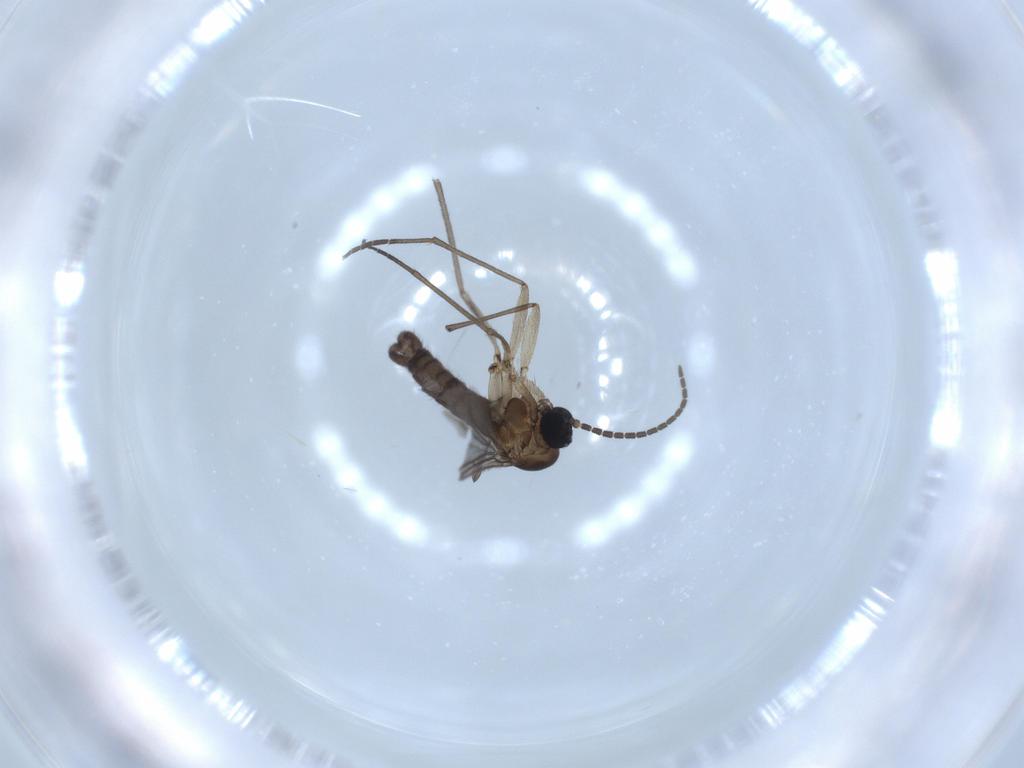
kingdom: Animalia
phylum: Arthropoda
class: Insecta
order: Diptera
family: Sciaridae
